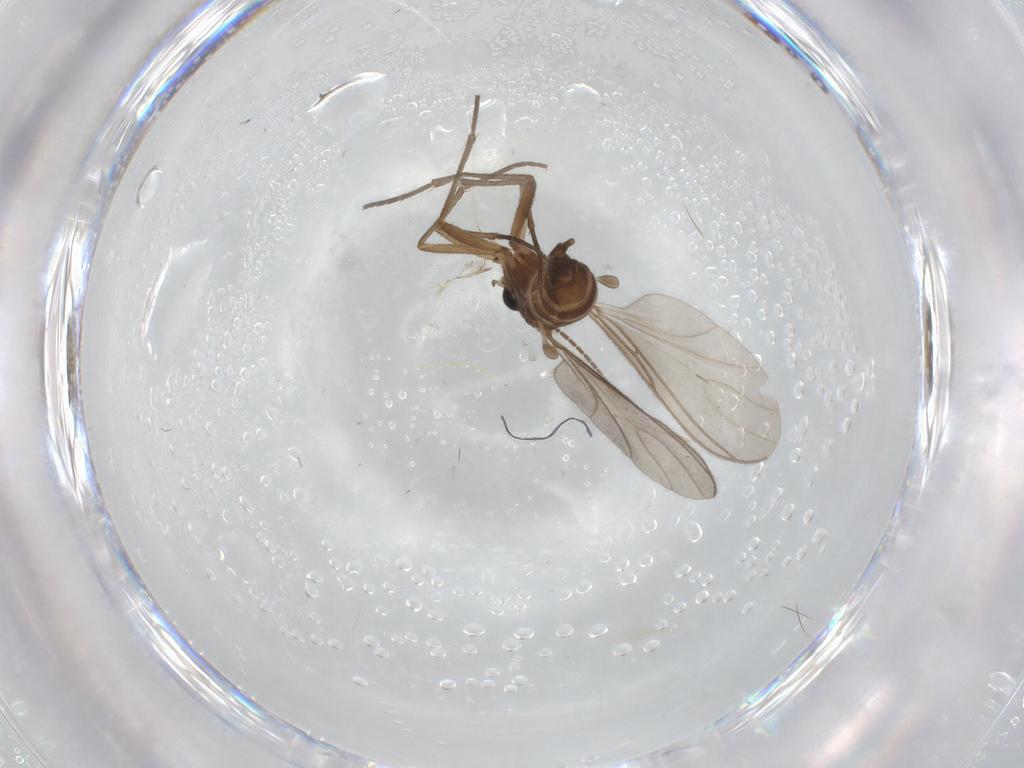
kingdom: Animalia
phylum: Arthropoda
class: Insecta
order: Diptera
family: Sciaridae
